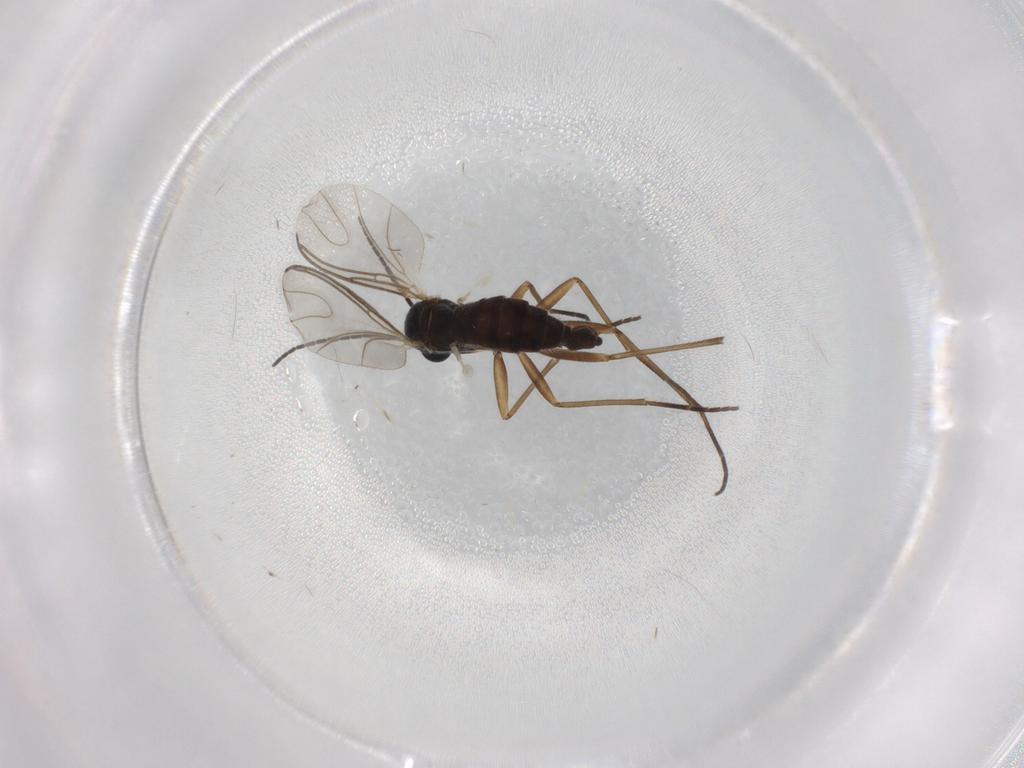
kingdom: Animalia
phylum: Arthropoda
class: Insecta
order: Diptera
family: Sciaridae
